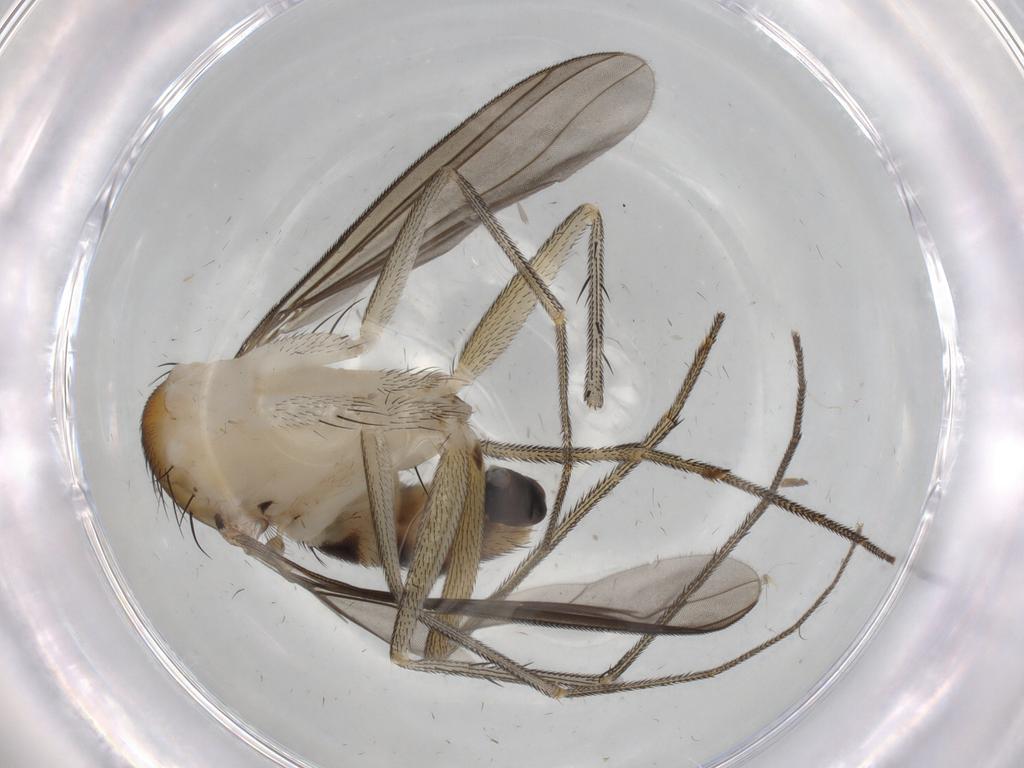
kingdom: Animalia
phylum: Arthropoda
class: Insecta
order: Diptera
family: Dolichopodidae
